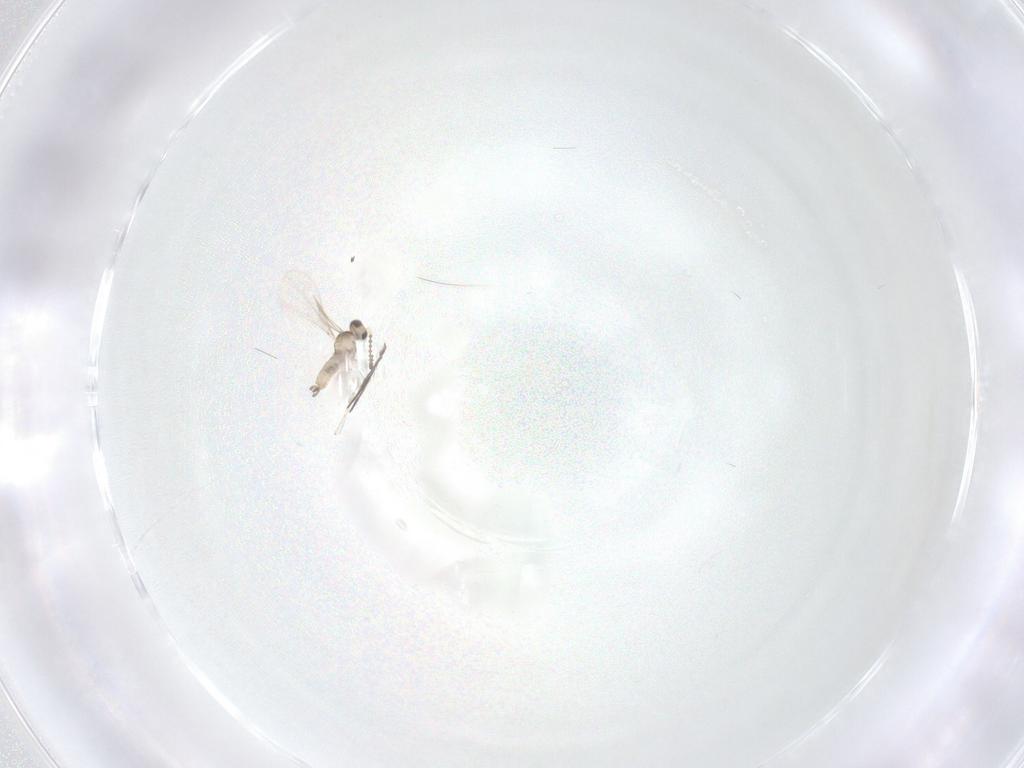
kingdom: Animalia
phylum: Arthropoda
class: Insecta
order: Diptera
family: Cecidomyiidae
